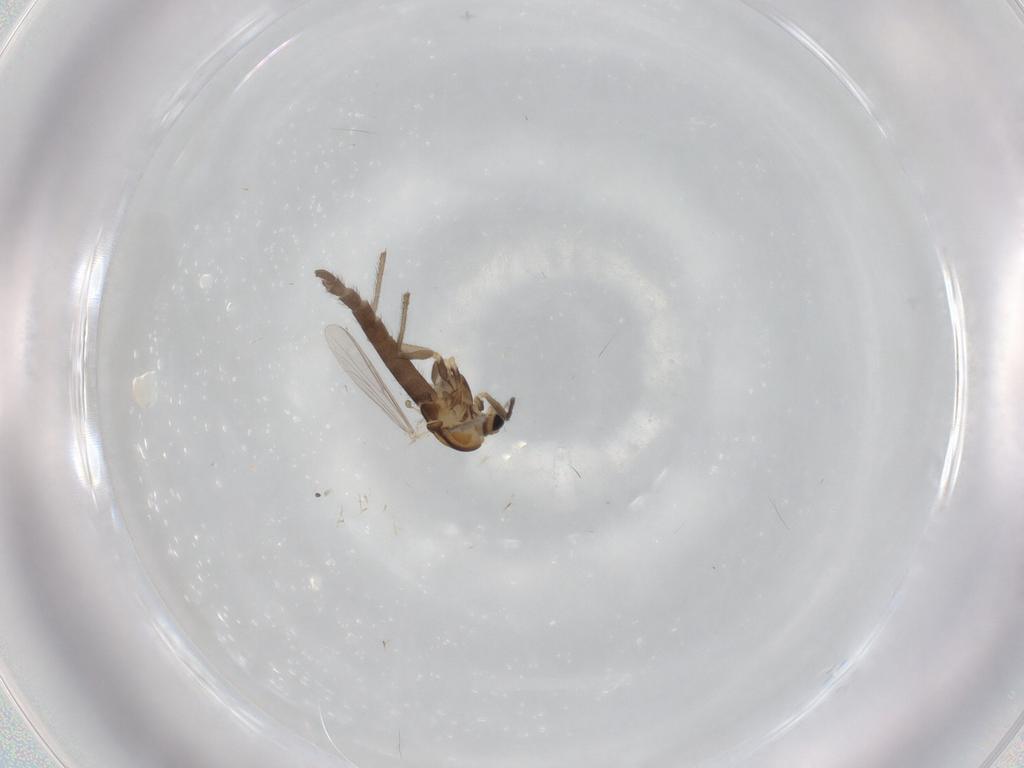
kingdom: Animalia
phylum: Arthropoda
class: Insecta
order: Diptera
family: Chironomidae
